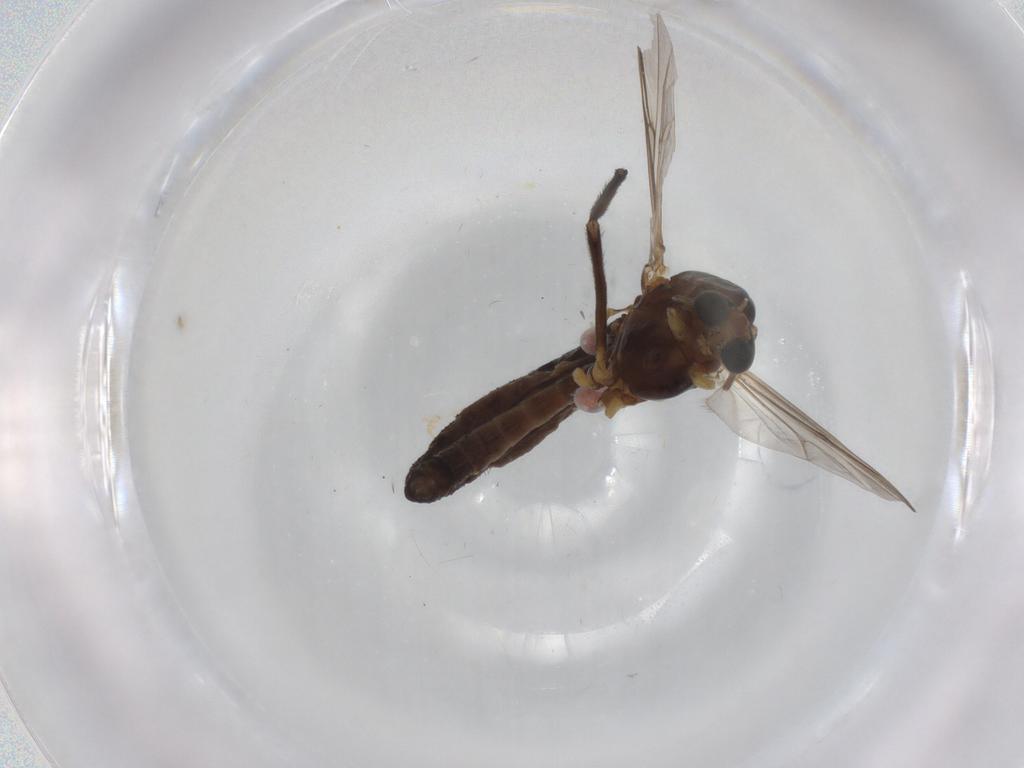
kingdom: Animalia
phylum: Arthropoda
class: Insecta
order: Diptera
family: Chironomidae
